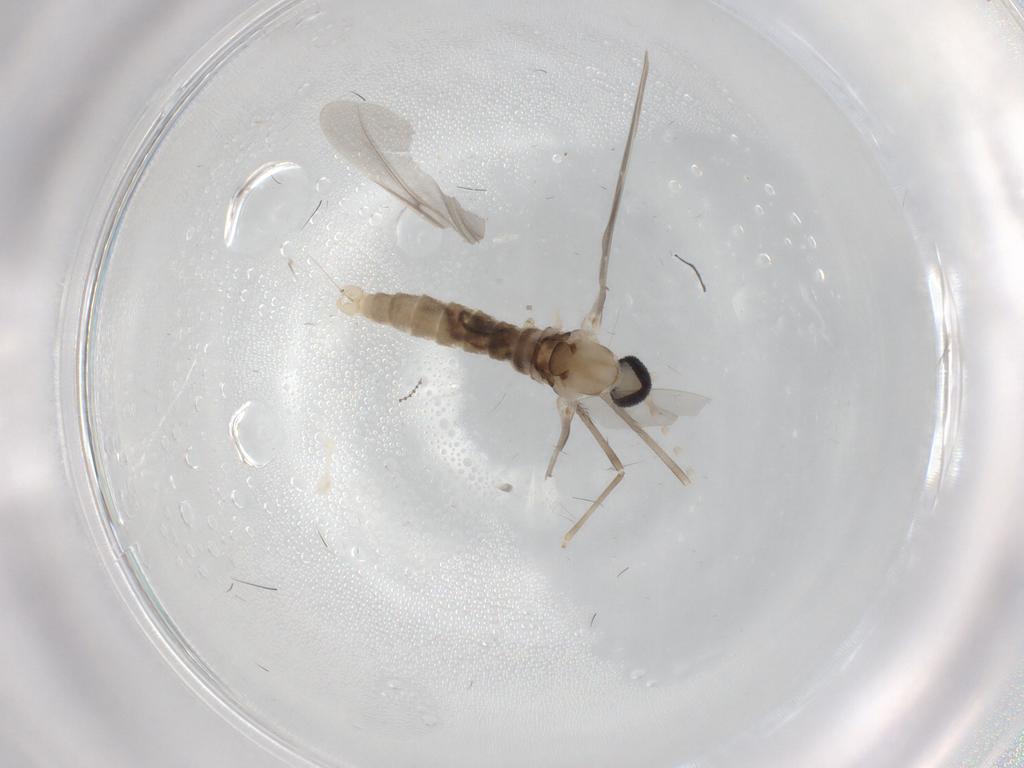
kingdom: Animalia
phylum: Arthropoda
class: Insecta
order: Diptera
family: Cecidomyiidae
